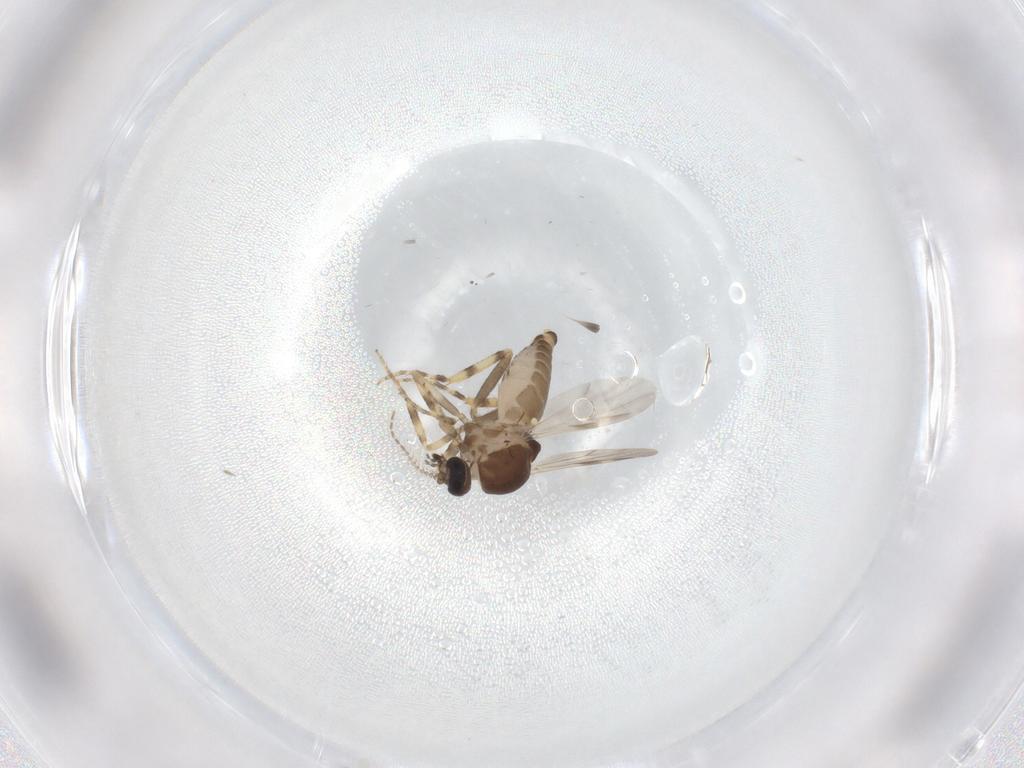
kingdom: Animalia
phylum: Arthropoda
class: Insecta
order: Diptera
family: Ceratopogonidae
